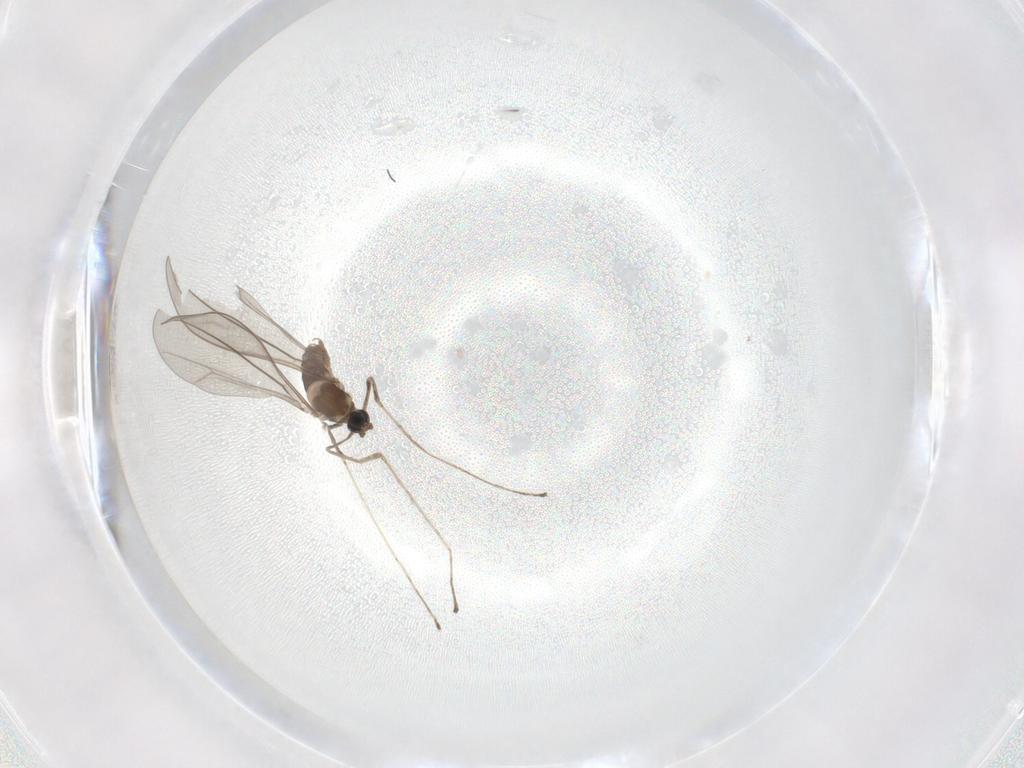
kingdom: Animalia
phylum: Arthropoda
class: Insecta
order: Diptera
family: Cecidomyiidae
